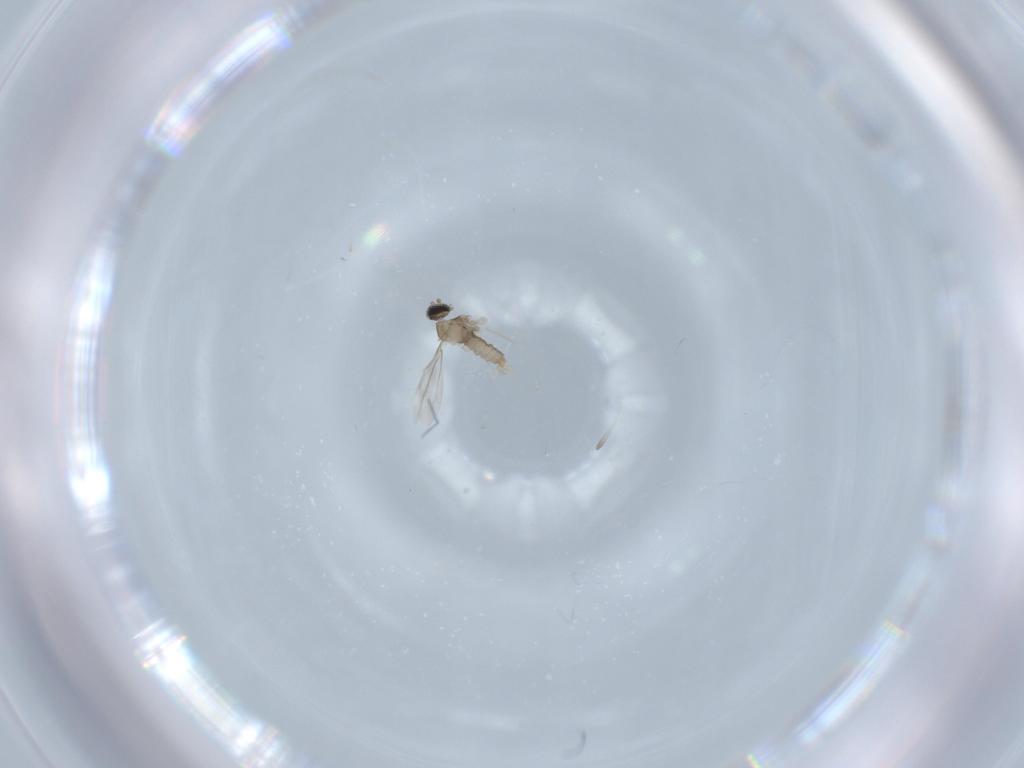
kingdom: Animalia
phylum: Arthropoda
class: Insecta
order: Diptera
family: Cecidomyiidae
